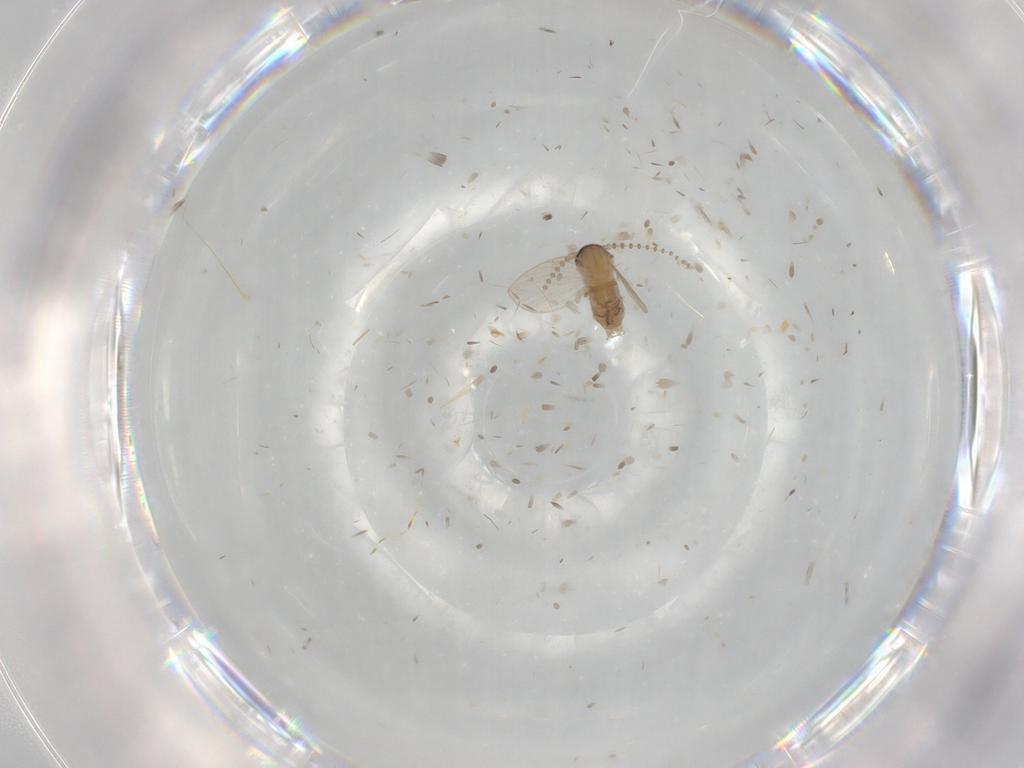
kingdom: Animalia
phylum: Arthropoda
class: Insecta
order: Diptera
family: Psychodidae
